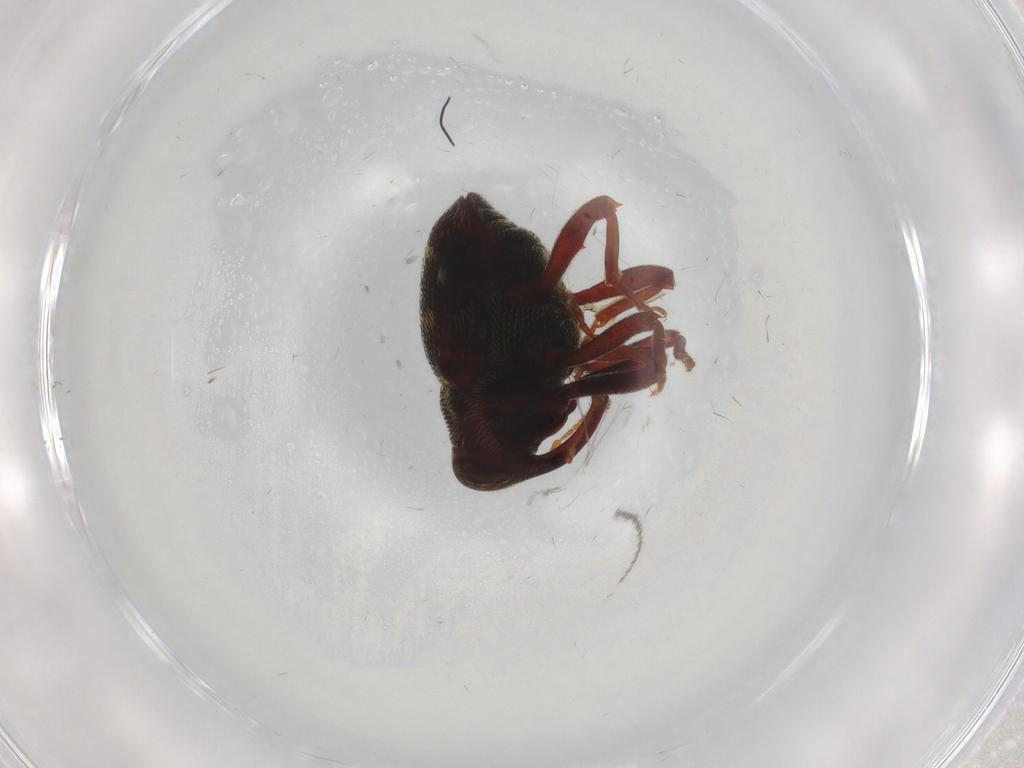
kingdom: Animalia
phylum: Arthropoda
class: Insecta
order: Coleoptera
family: Curculionidae
